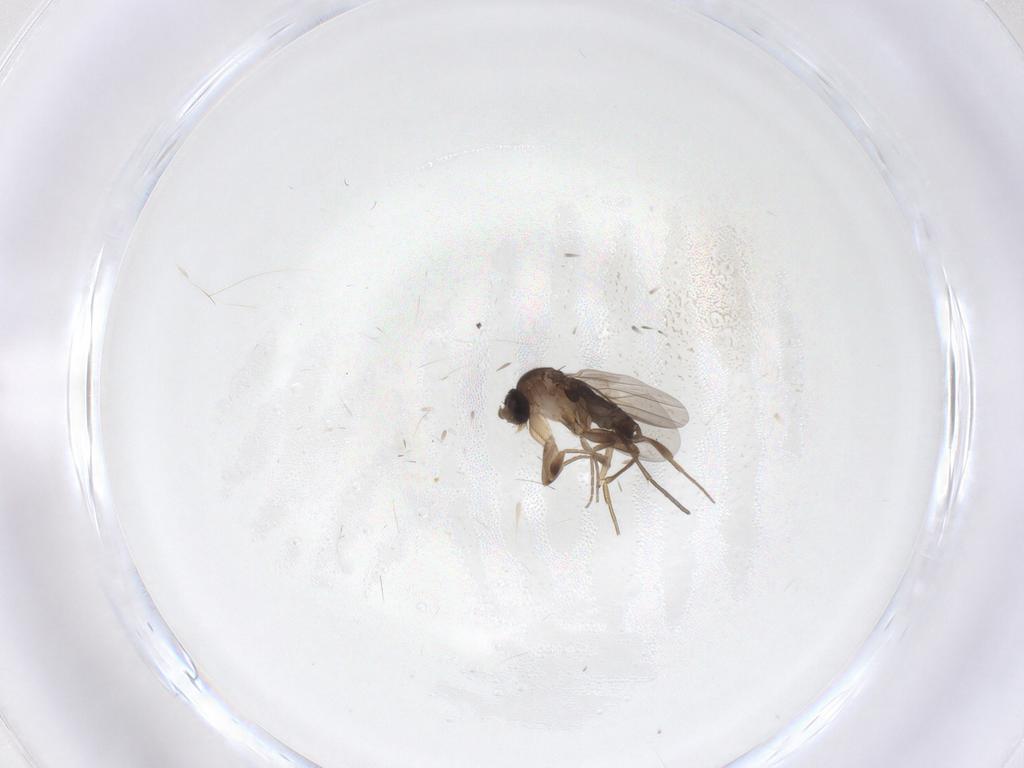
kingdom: Animalia
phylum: Arthropoda
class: Insecta
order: Diptera
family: Phoridae
